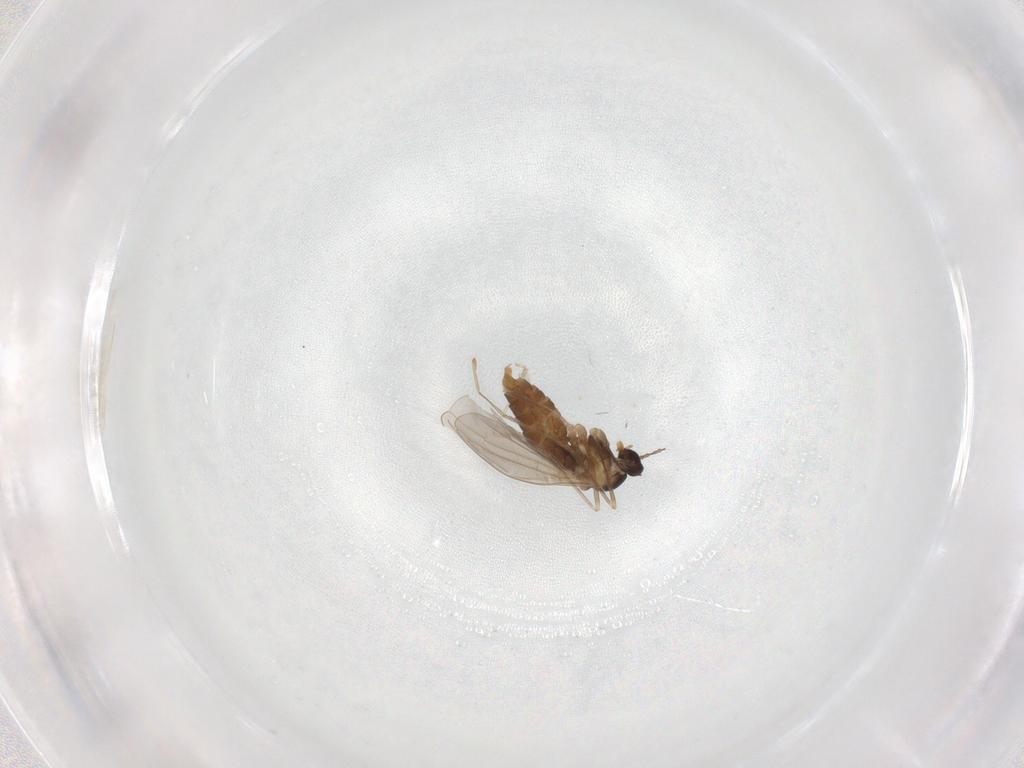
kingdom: Animalia
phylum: Arthropoda
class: Insecta
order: Diptera
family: Cecidomyiidae
